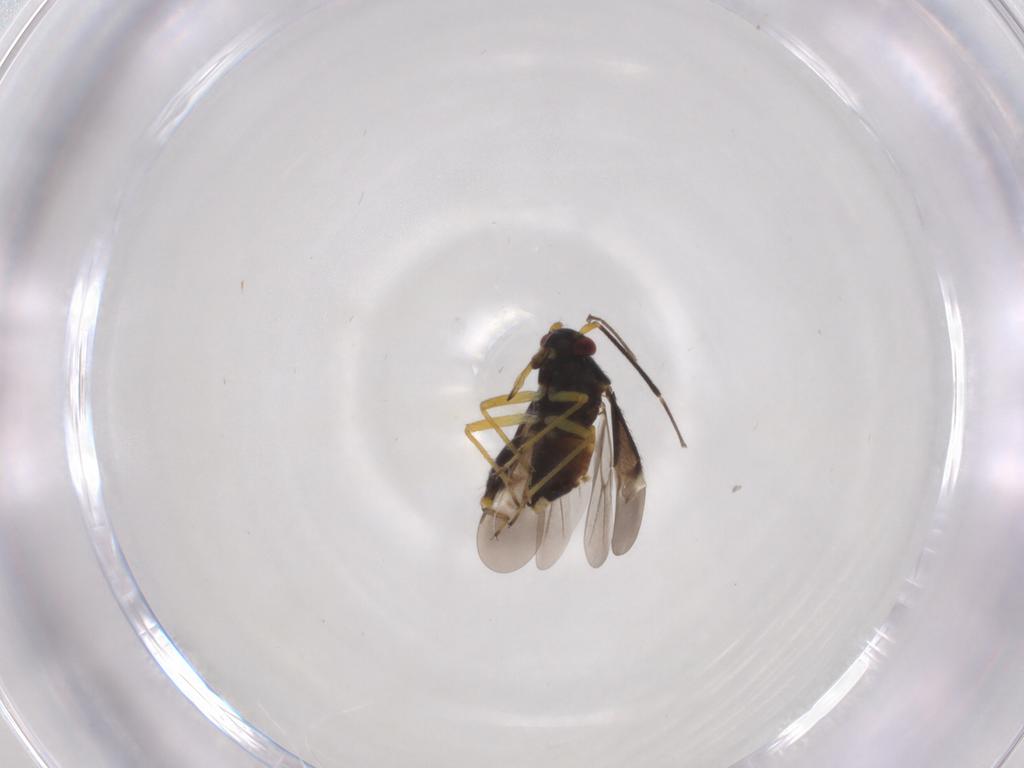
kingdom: Animalia
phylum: Arthropoda
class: Insecta
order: Hemiptera
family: Miridae
